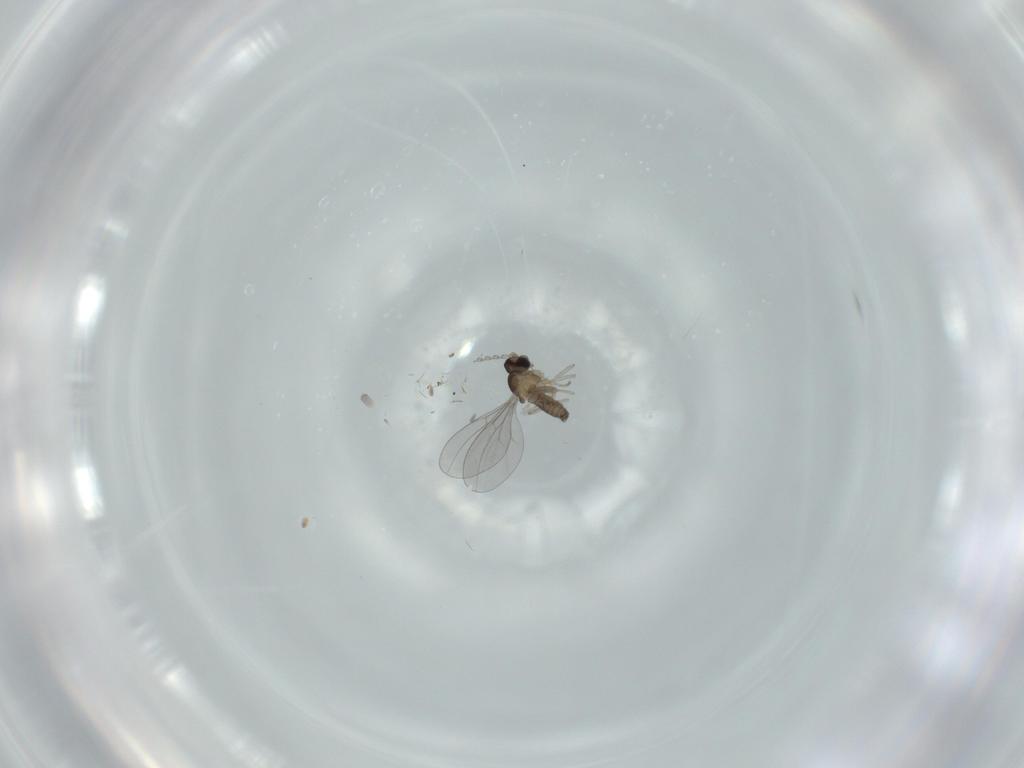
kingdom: Animalia
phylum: Arthropoda
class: Insecta
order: Diptera
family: Cecidomyiidae
